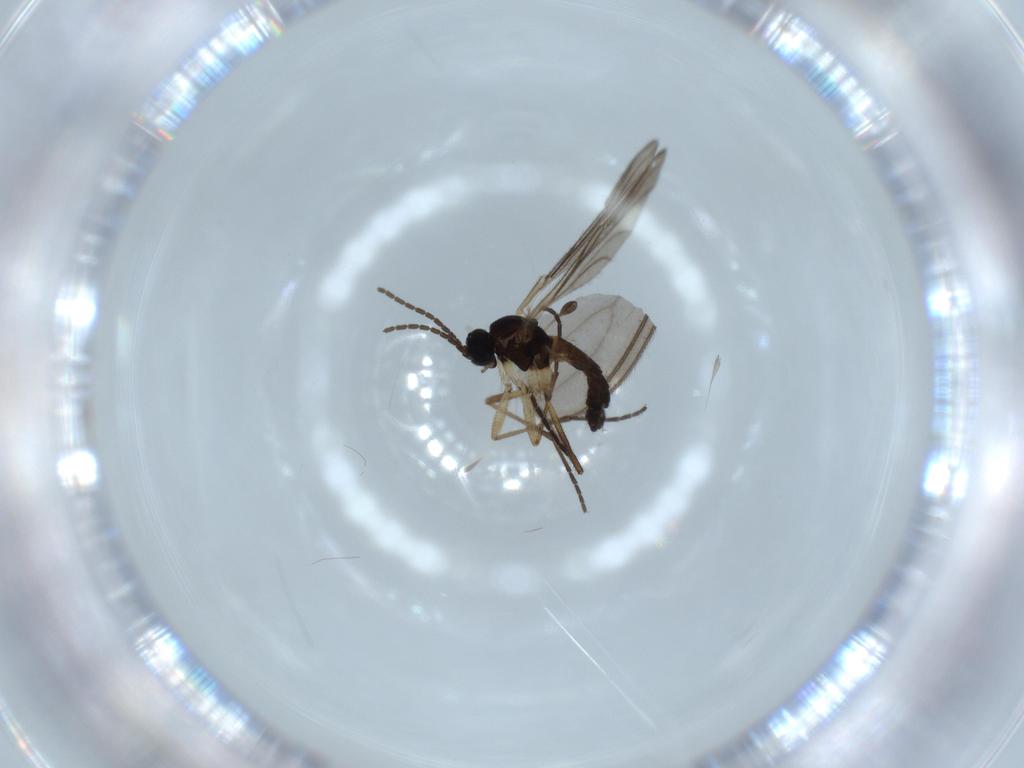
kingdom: Animalia
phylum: Arthropoda
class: Insecta
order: Diptera
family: Sciaridae
